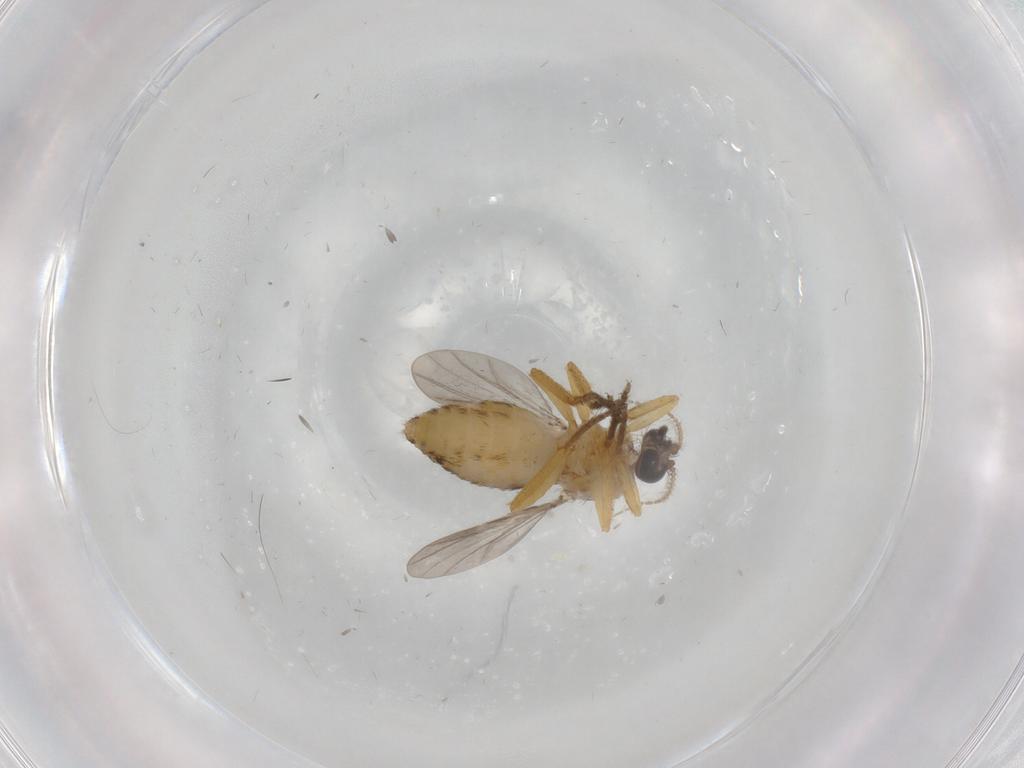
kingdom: Animalia
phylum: Arthropoda
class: Insecta
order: Diptera
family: Ceratopogonidae
